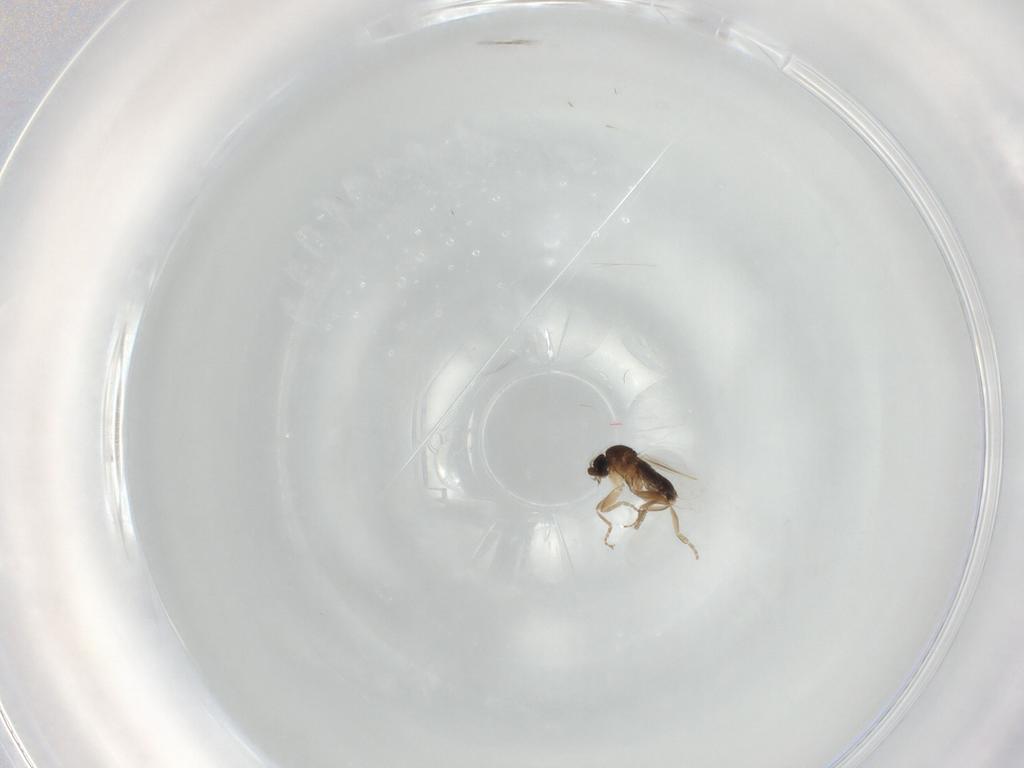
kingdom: Animalia
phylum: Arthropoda
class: Insecta
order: Diptera
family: Phoridae
